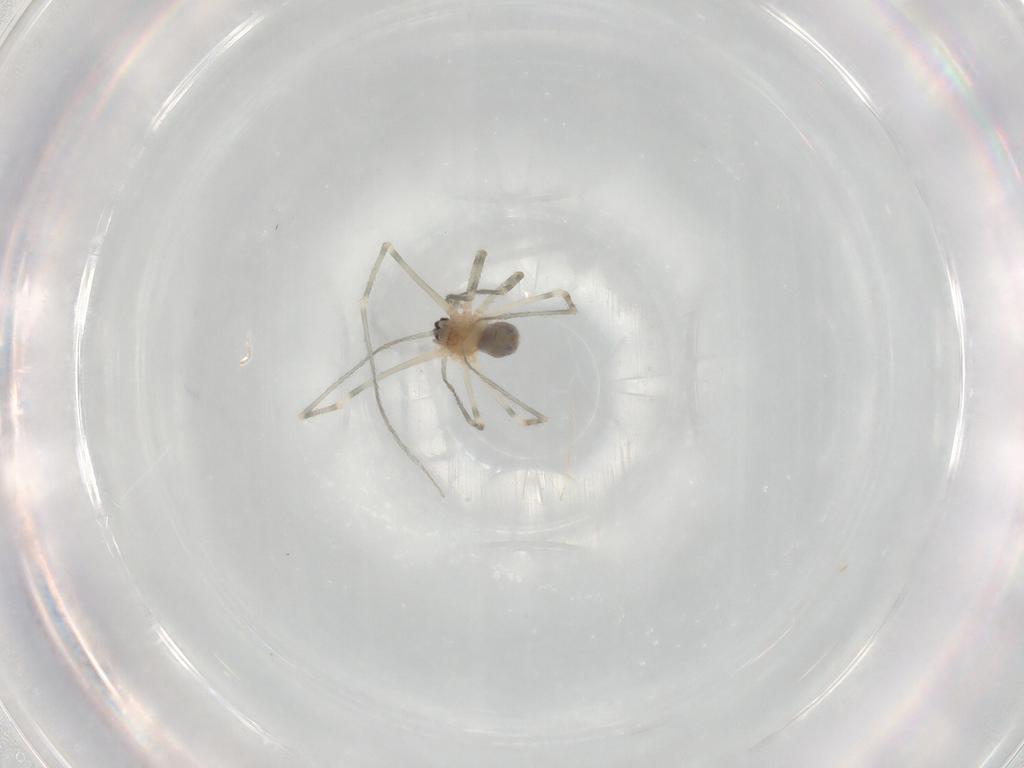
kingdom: Animalia
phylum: Arthropoda
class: Arachnida
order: Araneae
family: Pholcidae
